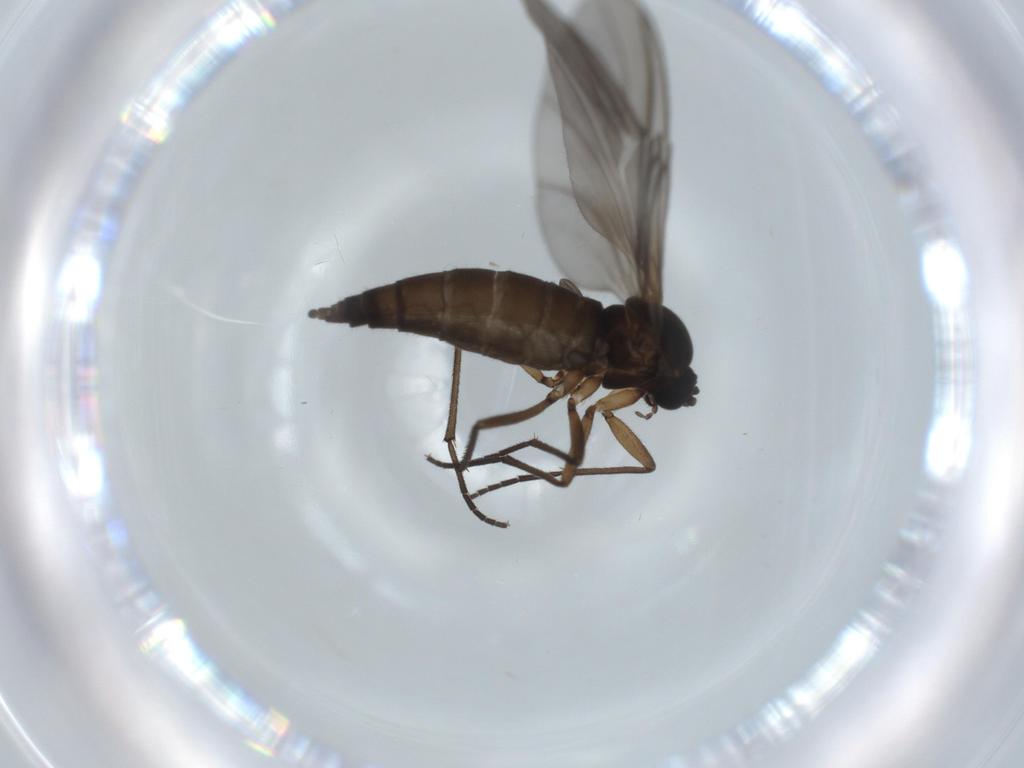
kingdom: Animalia
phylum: Arthropoda
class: Insecta
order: Diptera
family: Sciaridae
